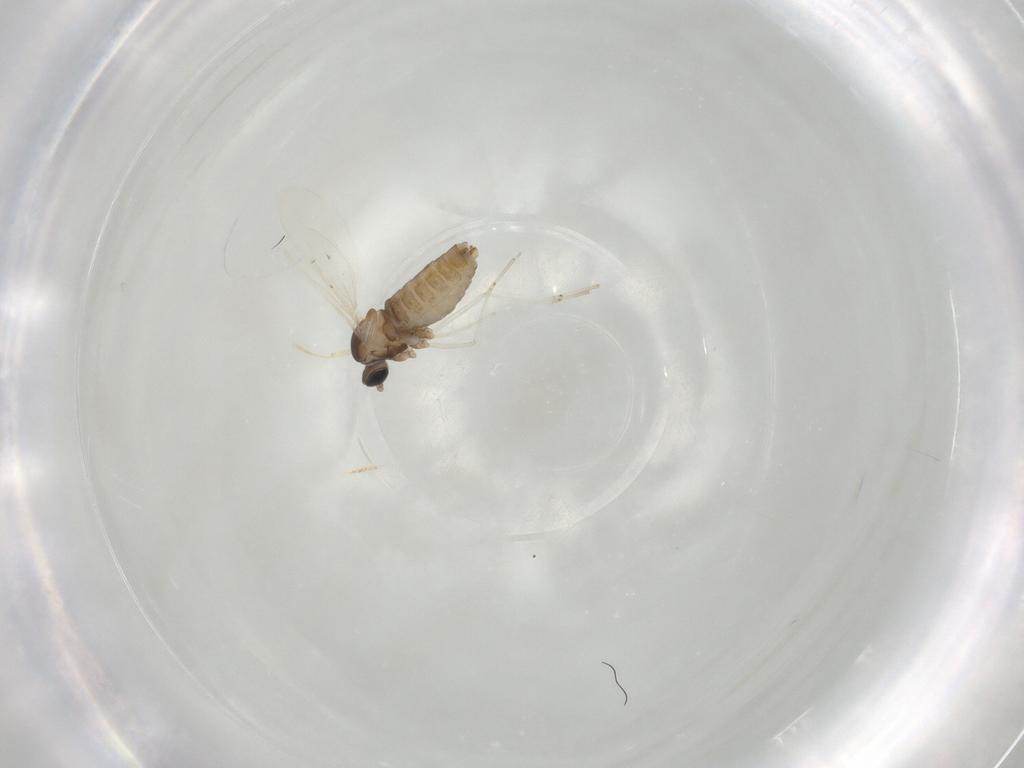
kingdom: Animalia
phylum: Arthropoda
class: Insecta
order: Diptera
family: Cecidomyiidae
